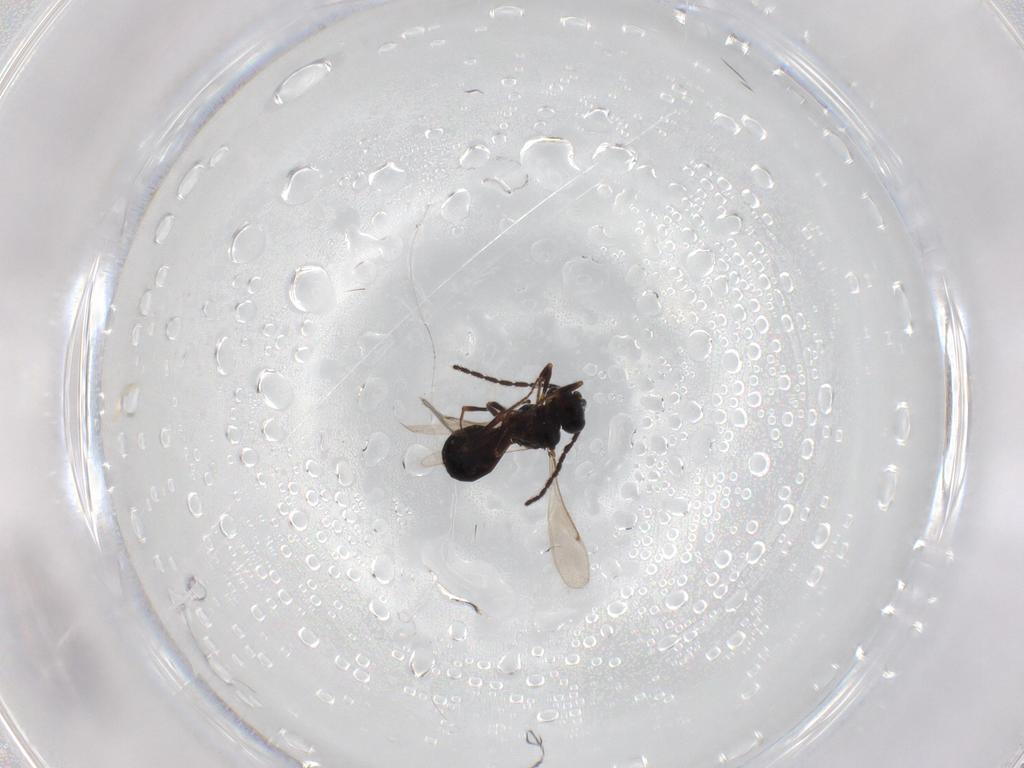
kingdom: Animalia
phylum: Arthropoda
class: Insecta
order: Hymenoptera
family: Scelionidae
